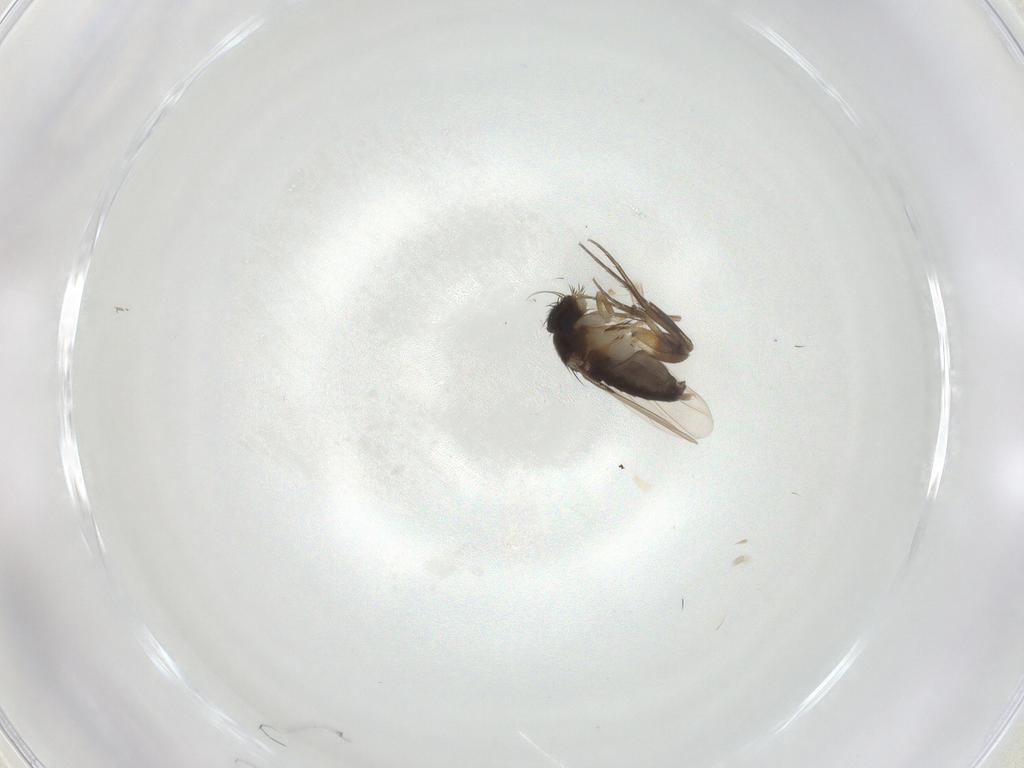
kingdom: Animalia
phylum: Arthropoda
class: Insecta
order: Diptera
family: Phoridae
